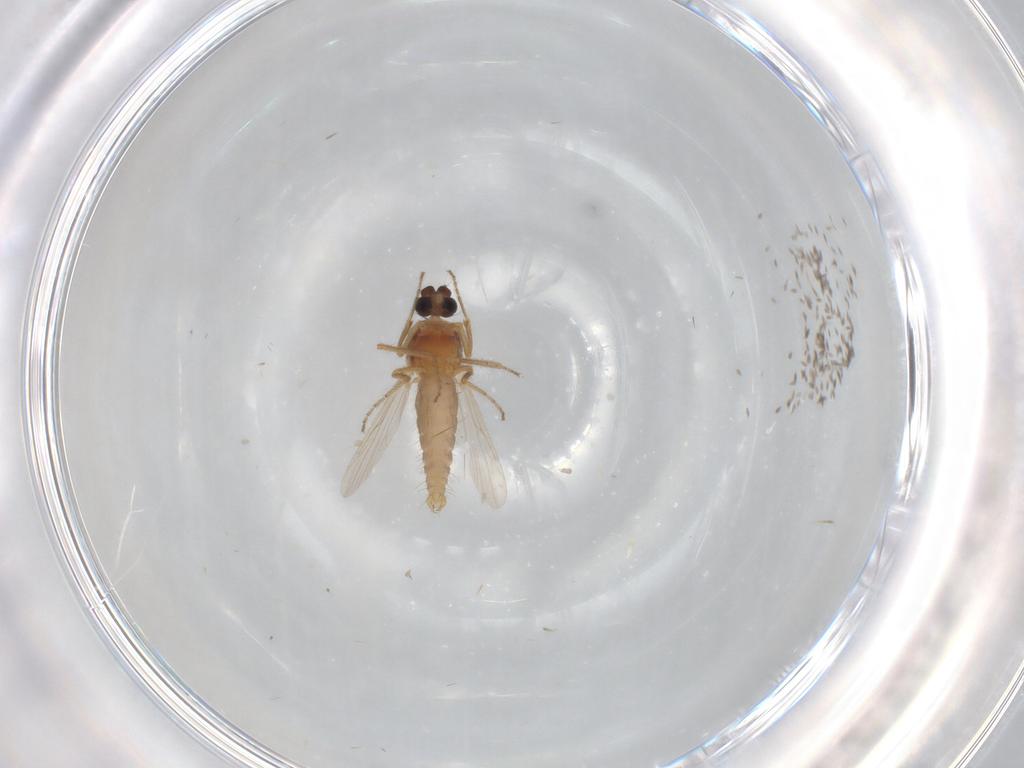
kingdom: Animalia
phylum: Arthropoda
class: Insecta
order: Diptera
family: Ceratopogonidae
